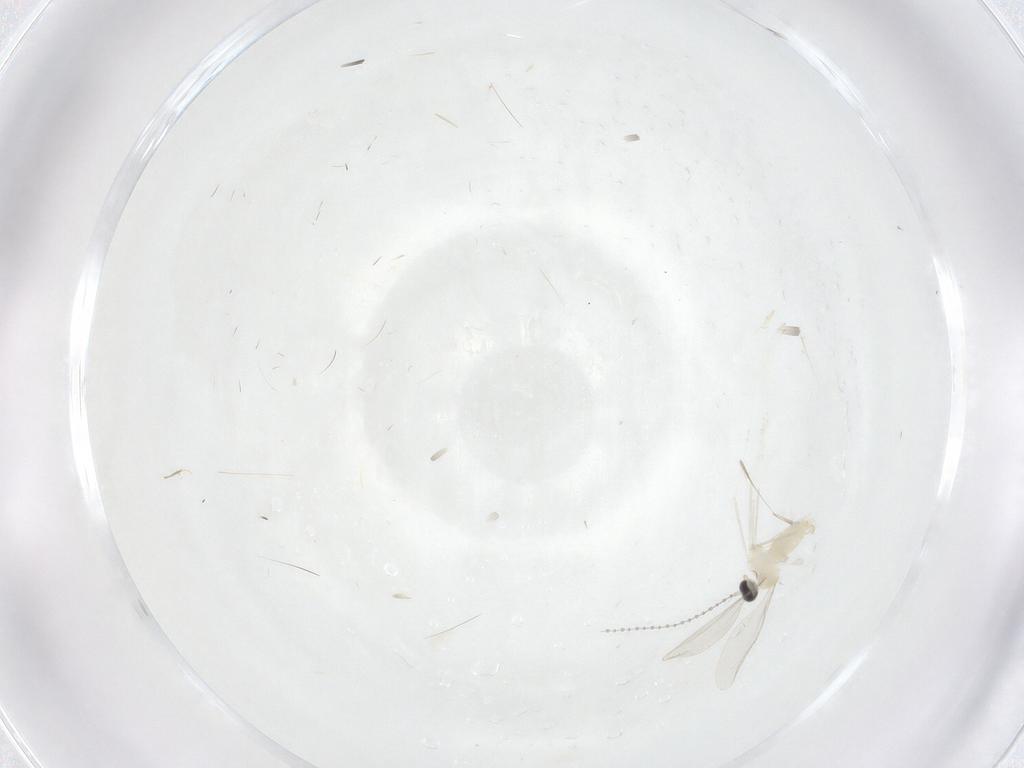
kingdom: Animalia
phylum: Arthropoda
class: Insecta
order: Diptera
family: Cecidomyiidae
